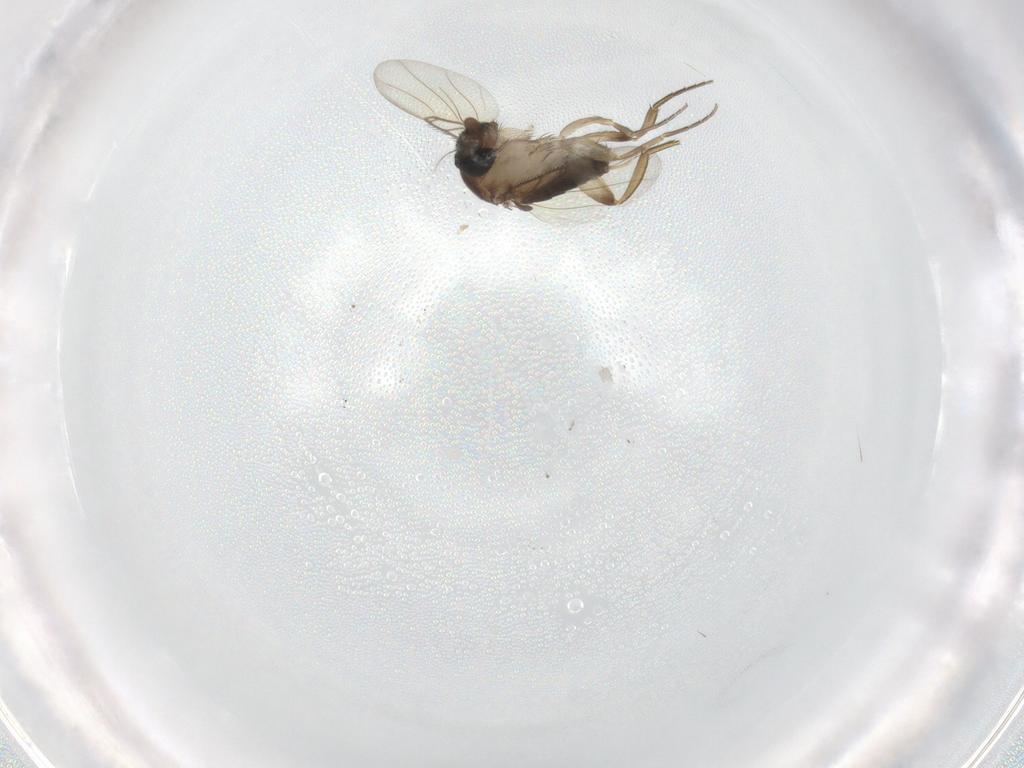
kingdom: Animalia
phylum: Arthropoda
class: Insecta
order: Diptera
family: Phoridae
